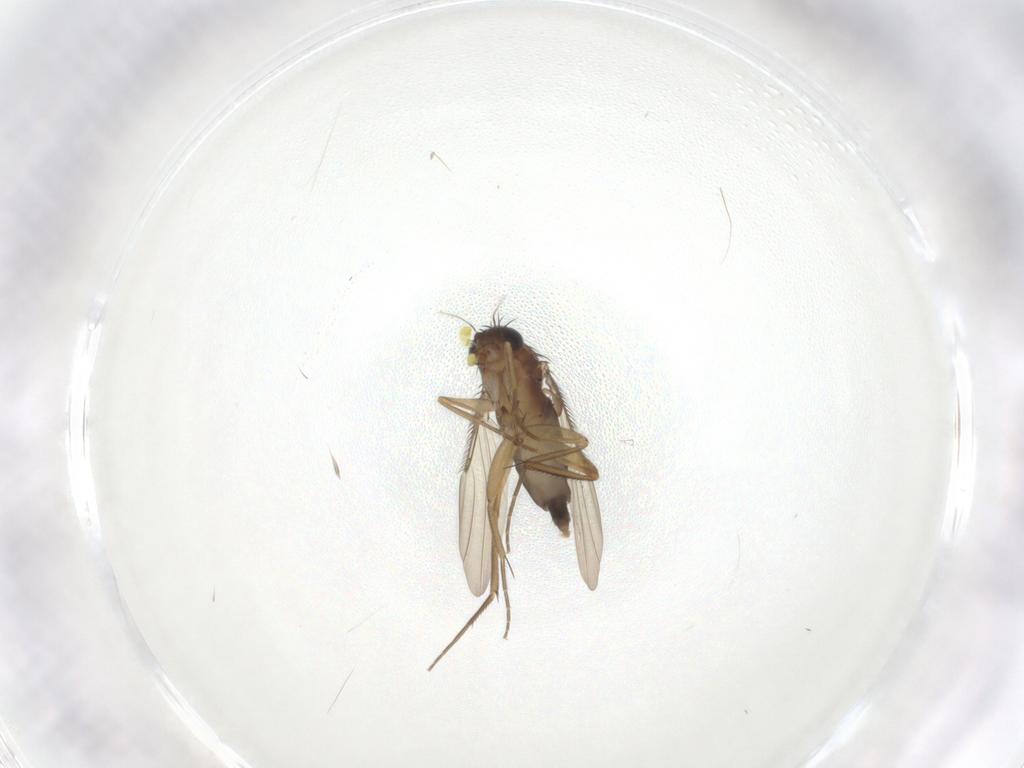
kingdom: Animalia
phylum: Arthropoda
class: Insecta
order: Diptera
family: Phoridae
